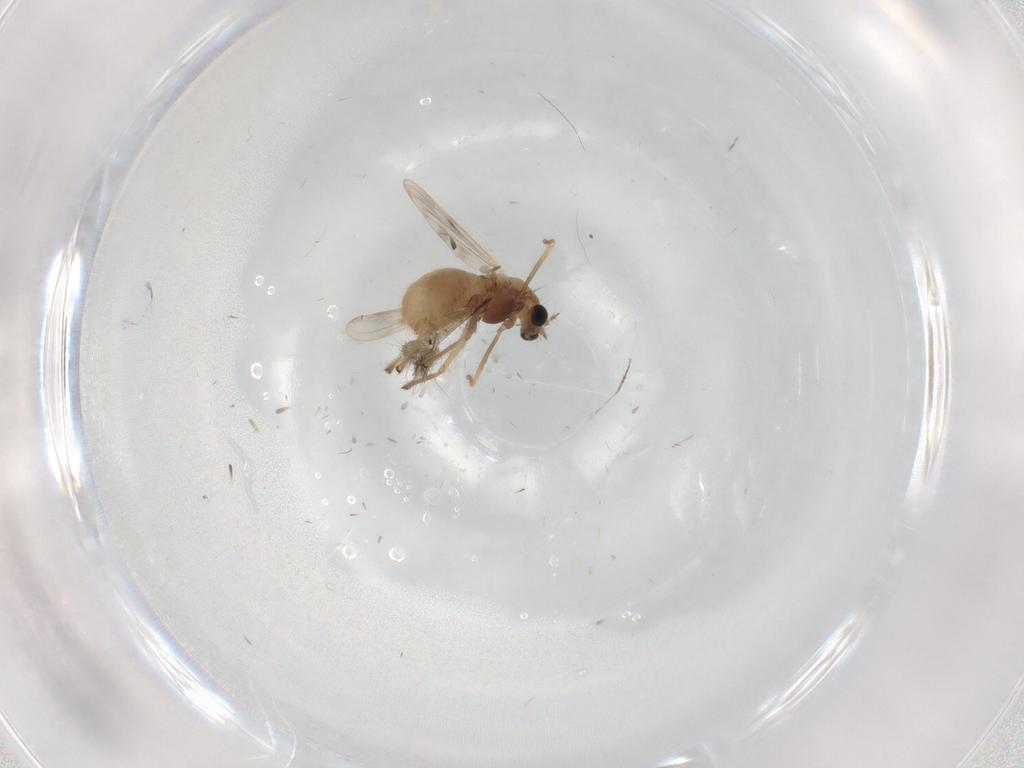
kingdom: Animalia
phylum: Arthropoda
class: Insecta
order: Diptera
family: Chironomidae
